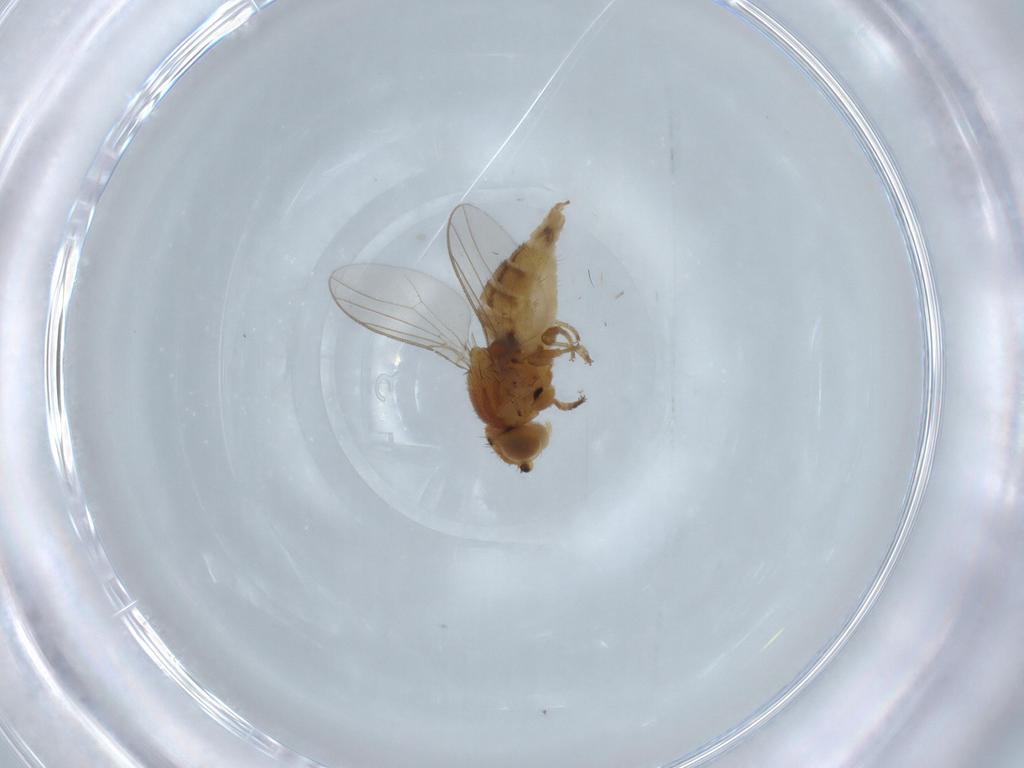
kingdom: Animalia
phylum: Arthropoda
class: Insecta
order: Diptera
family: Chloropidae
